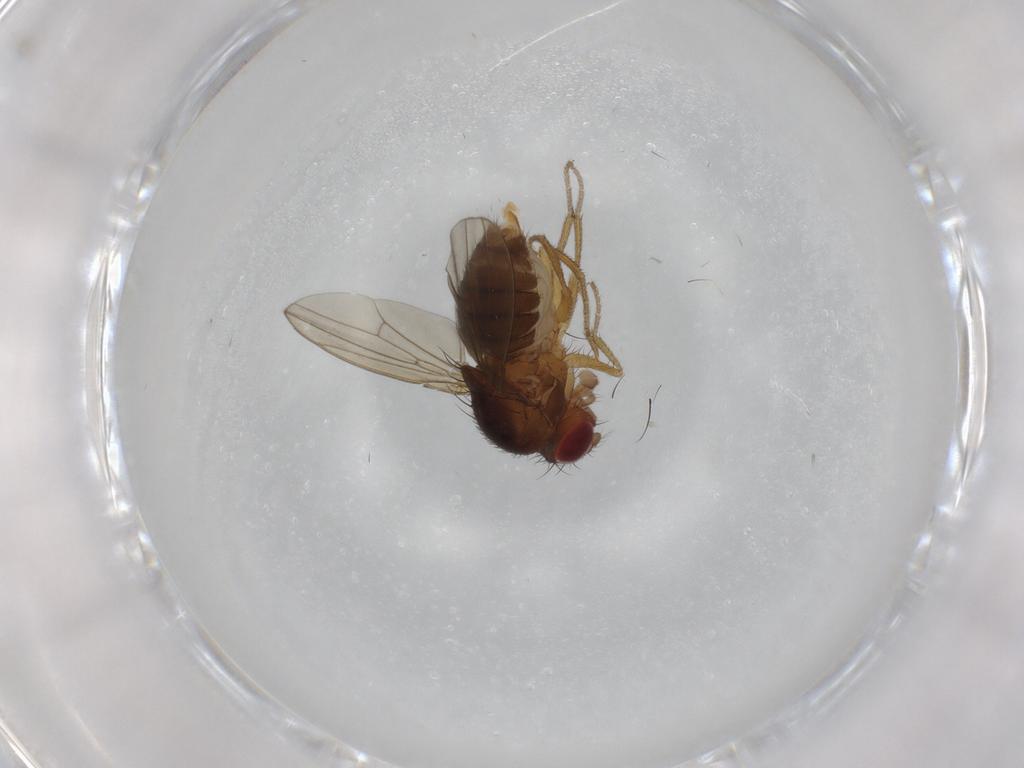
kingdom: Animalia
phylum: Arthropoda
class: Insecta
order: Diptera
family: Drosophilidae
